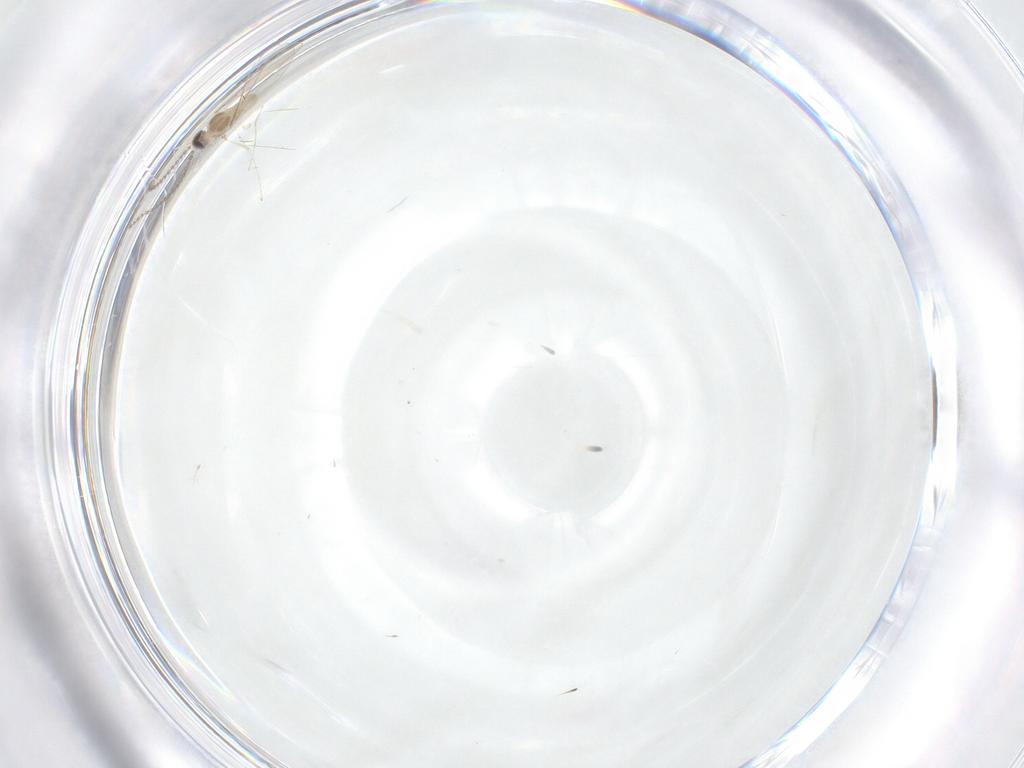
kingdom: Animalia
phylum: Arthropoda
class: Insecta
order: Diptera
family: Cecidomyiidae
